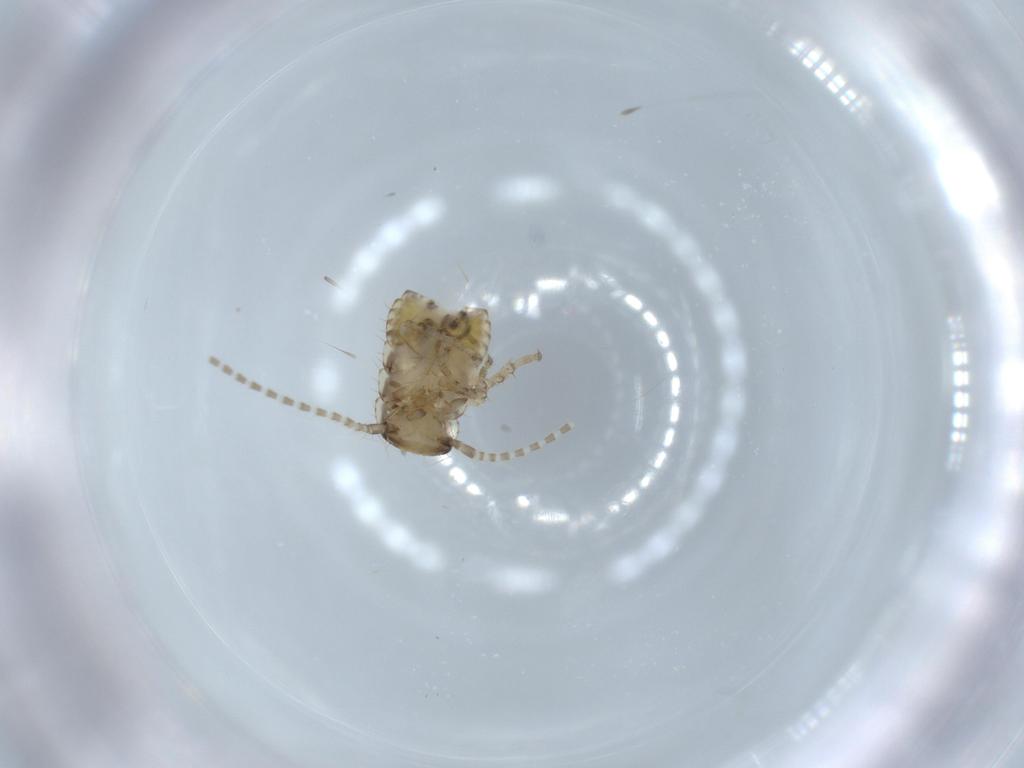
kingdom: Animalia
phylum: Arthropoda
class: Insecta
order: Blattodea
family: Ectobiidae
